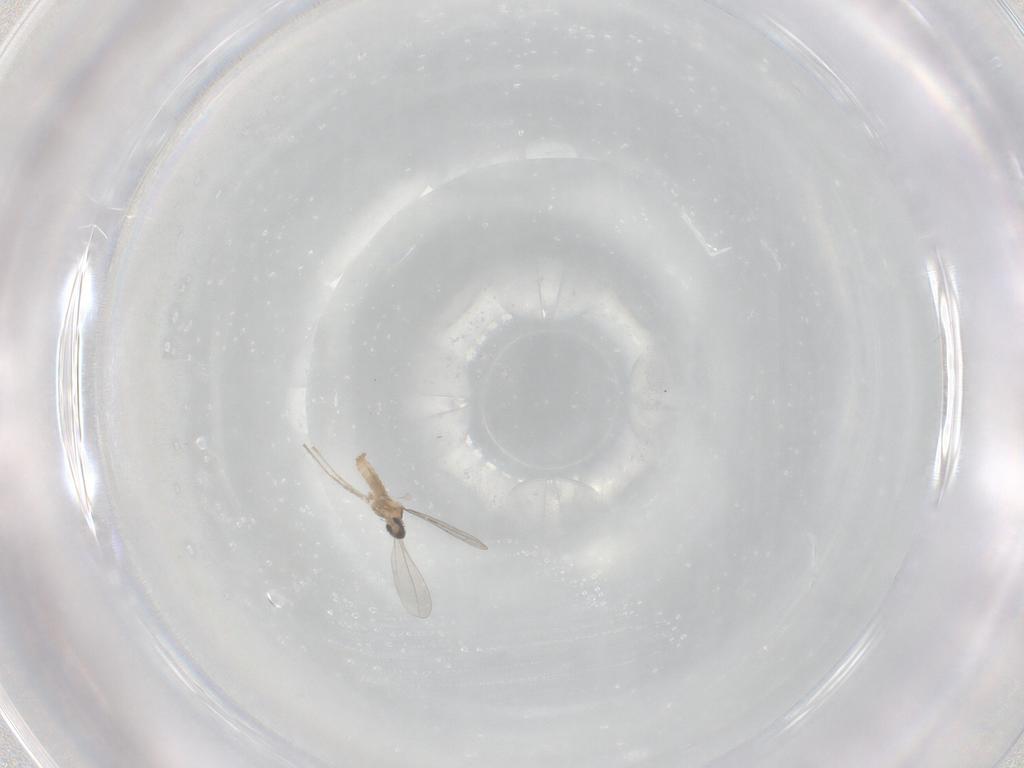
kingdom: Animalia
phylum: Arthropoda
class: Insecta
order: Diptera
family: Cecidomyiidae
